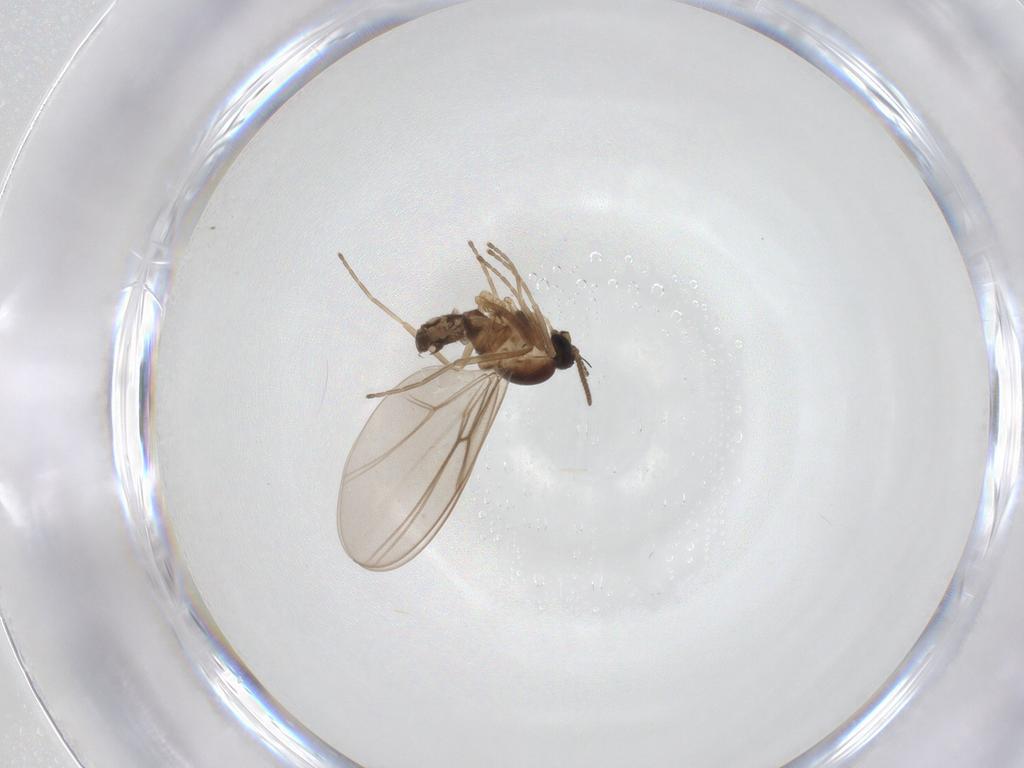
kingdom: Animalia
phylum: Arthropoda
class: Insecta
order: Diptera
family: Cecidomyiidae
